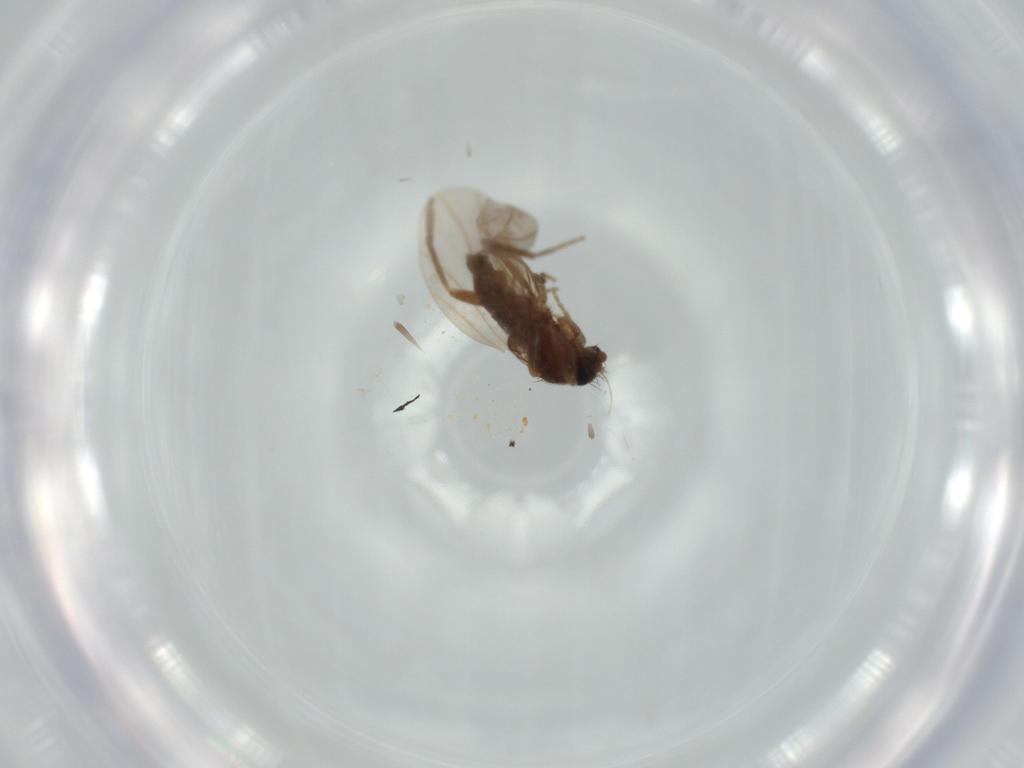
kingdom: Animalia
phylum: Arthropoda
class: Insecta
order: Diptera
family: Phoridae
